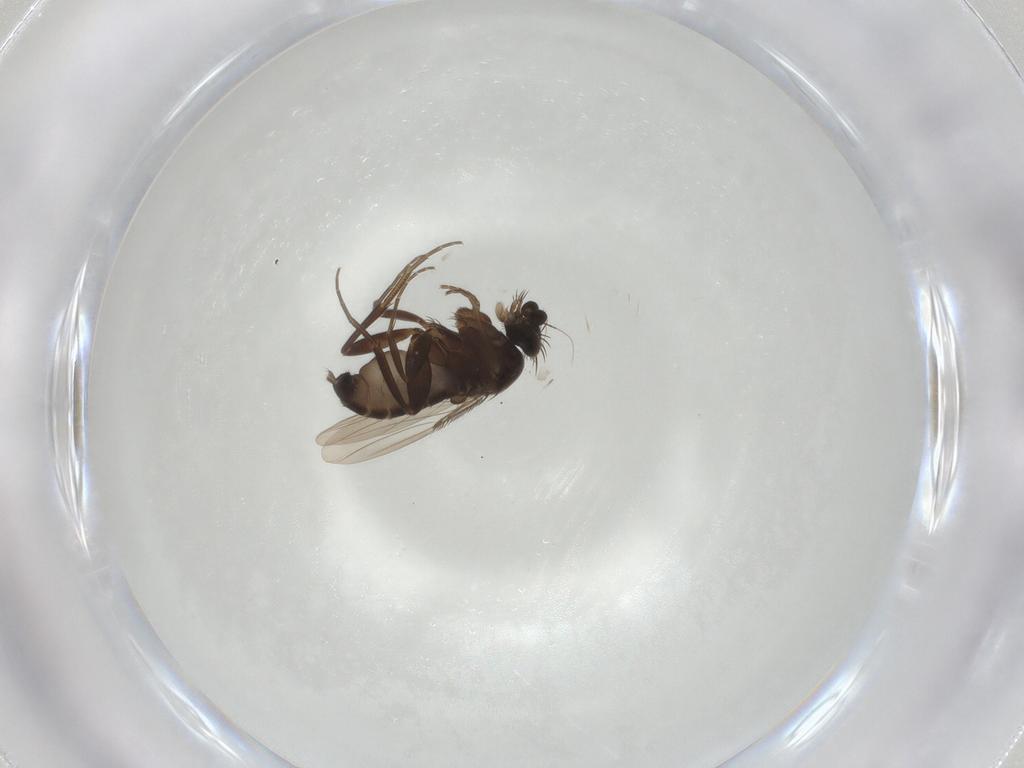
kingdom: Animalia
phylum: Arthropoda
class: Insecta
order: Diptera
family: Phoridae
